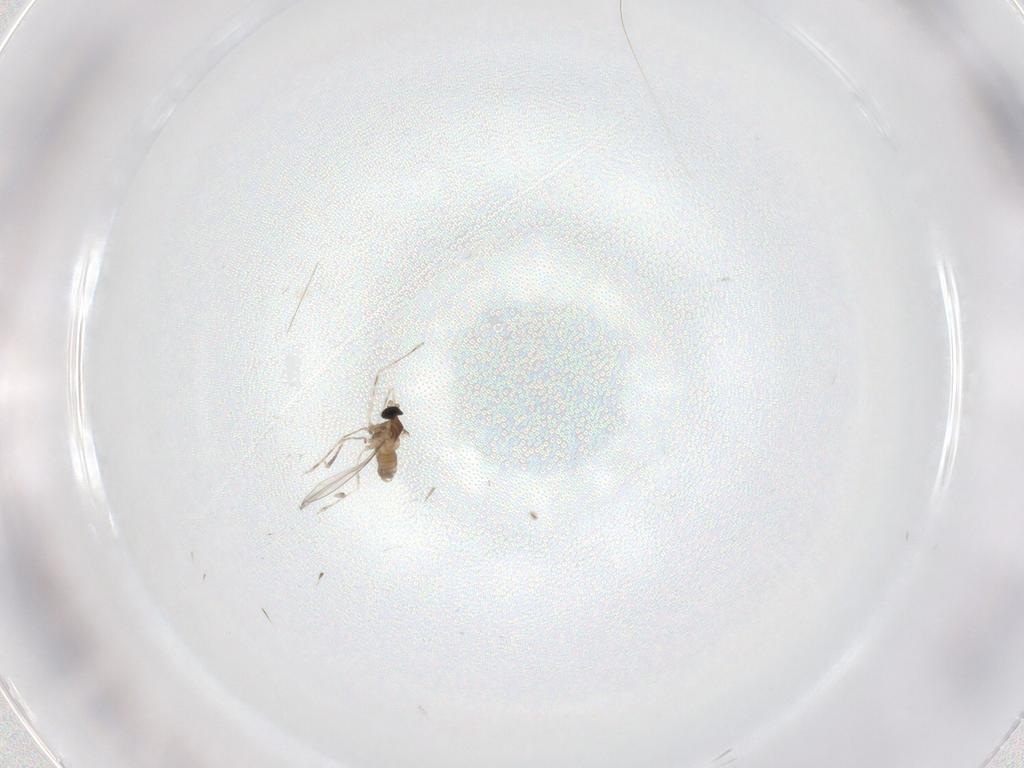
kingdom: Animalia
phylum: Arthropoda
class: Insecta
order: Diptera
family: Cecidomyiidae
